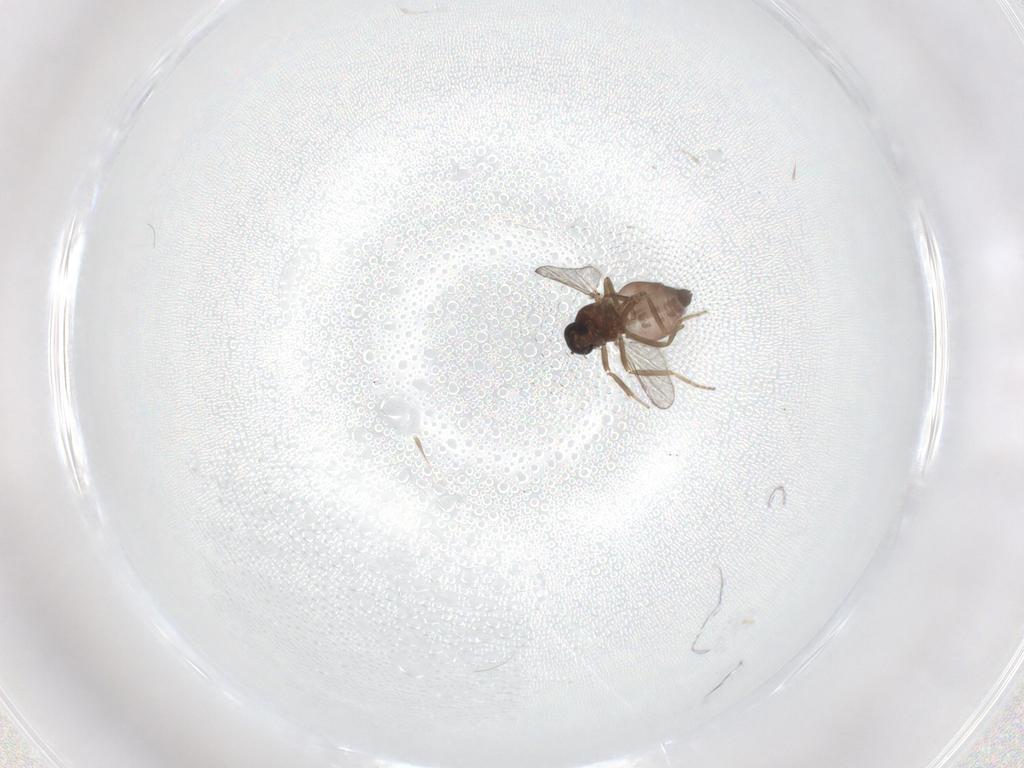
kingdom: Animalia
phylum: Arthropoda
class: Insecta
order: Diptera
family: Ceratopogonidae
